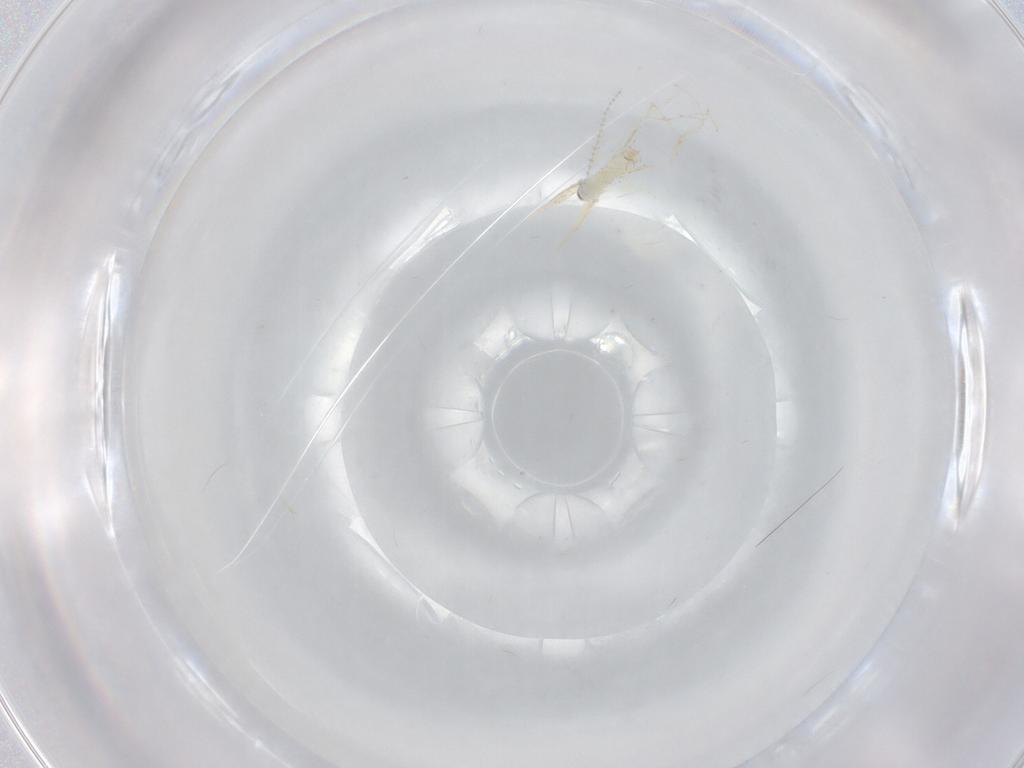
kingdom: Animalia
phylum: Arthropoda
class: Insecta
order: Diptera
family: Cecidomyiidae
